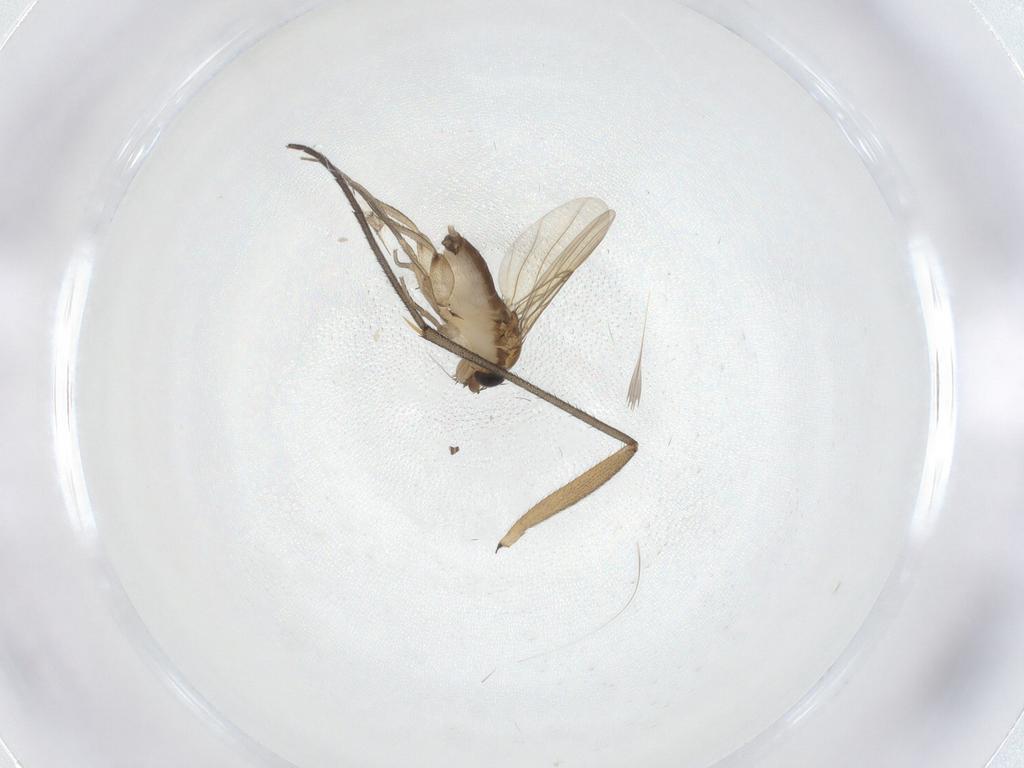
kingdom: Animalia
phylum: Arthropoda
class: Insecta
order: Diptera
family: Sciaridae
